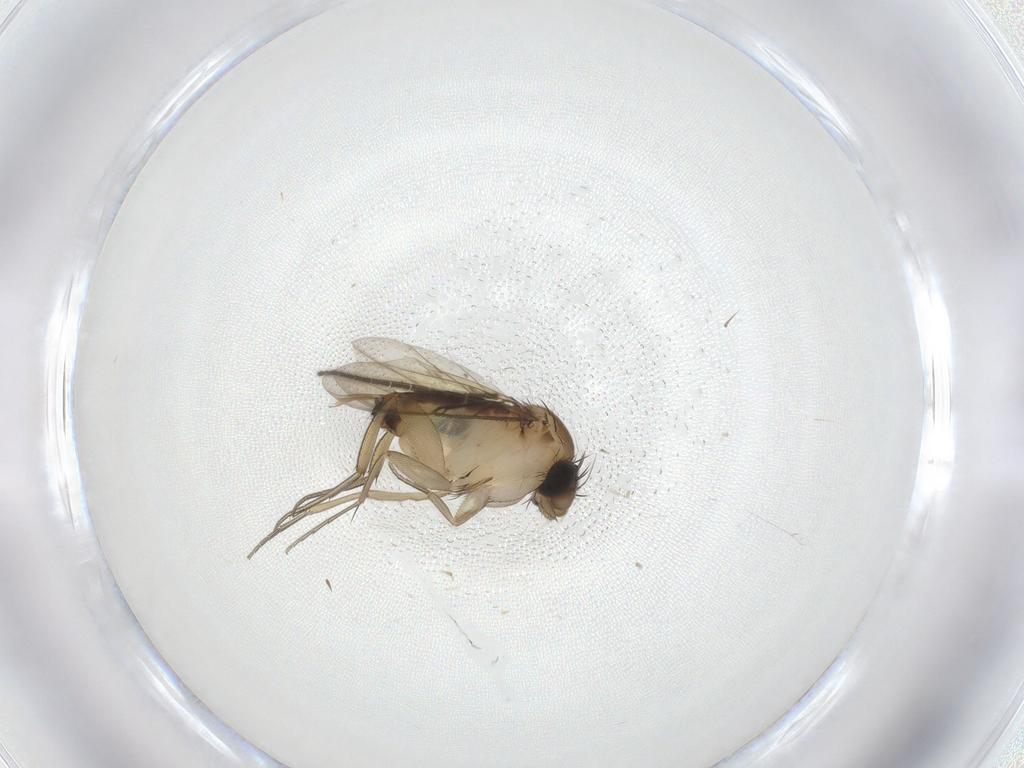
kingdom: Animalia
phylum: Arthropoda
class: Insecta
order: Diptera
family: Sciaridae
